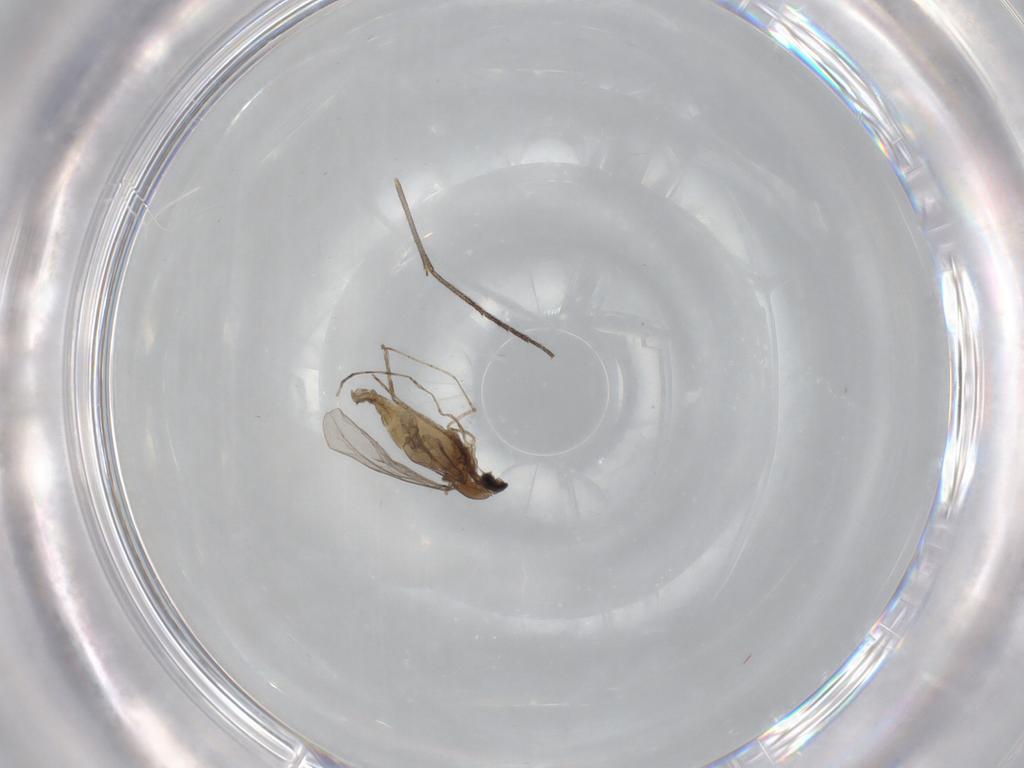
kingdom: Animalia
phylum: Arthropoda
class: Insecta
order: Diptera
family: Cecidomyiidae
